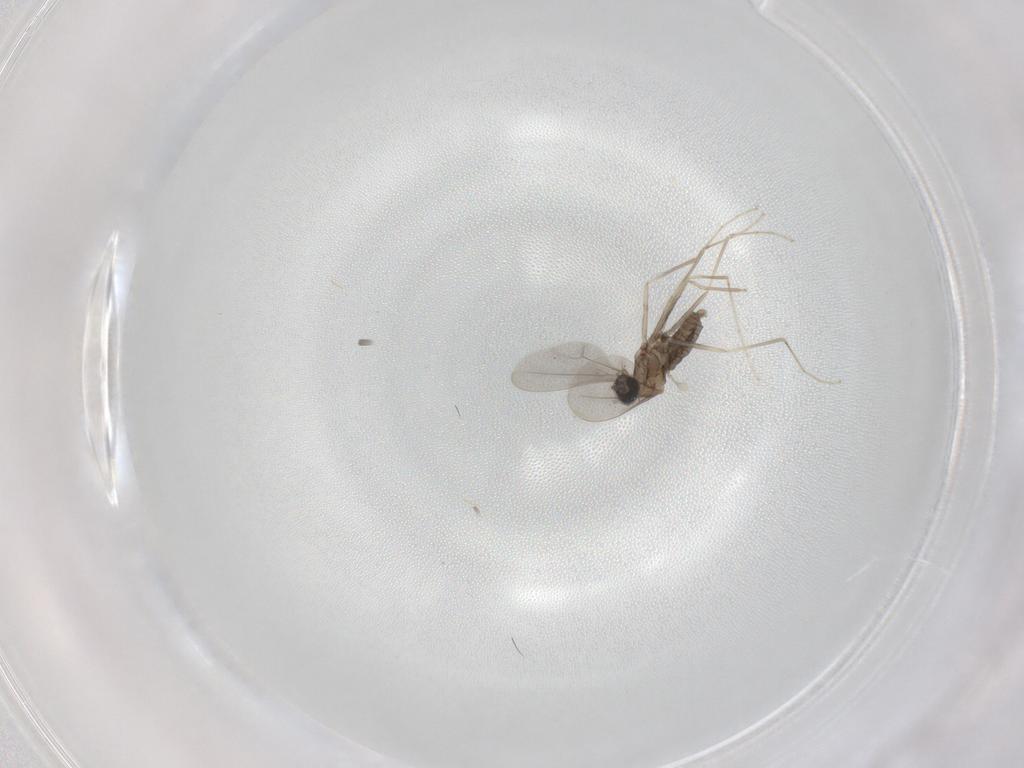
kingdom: Animalia
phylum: Arthropoda
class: Insecta
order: Diptera
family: Cecidomyiidae
